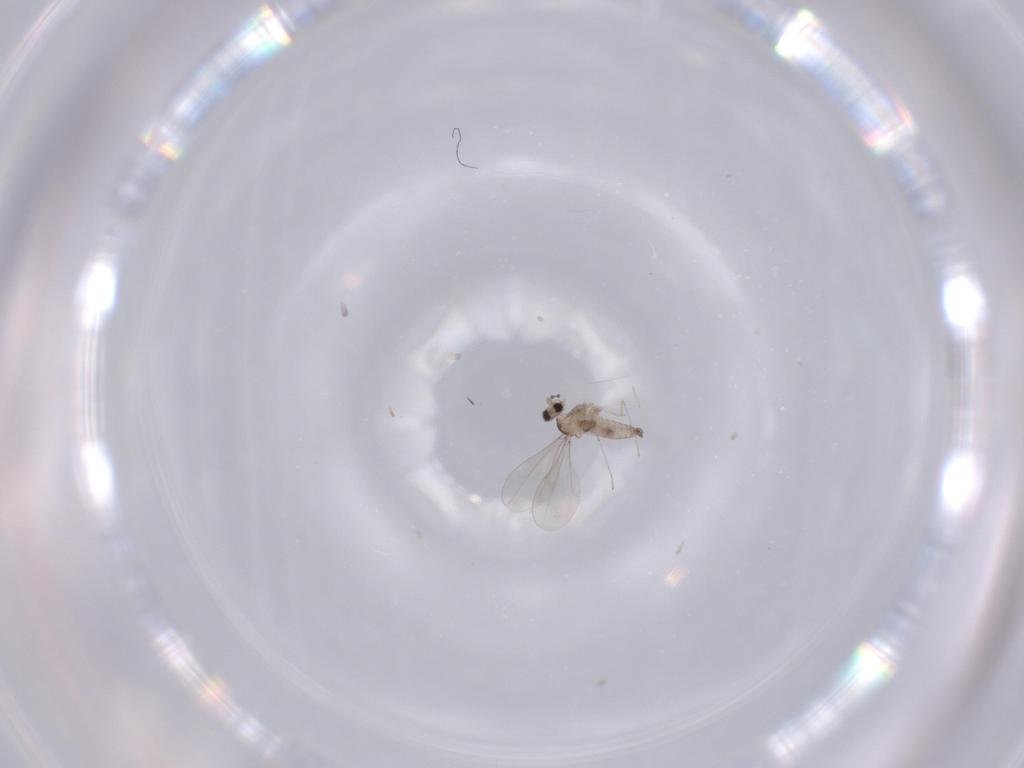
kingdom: Animalia
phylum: Arthropoda
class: Insecta
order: Diptera
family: Cecidomyiidae
